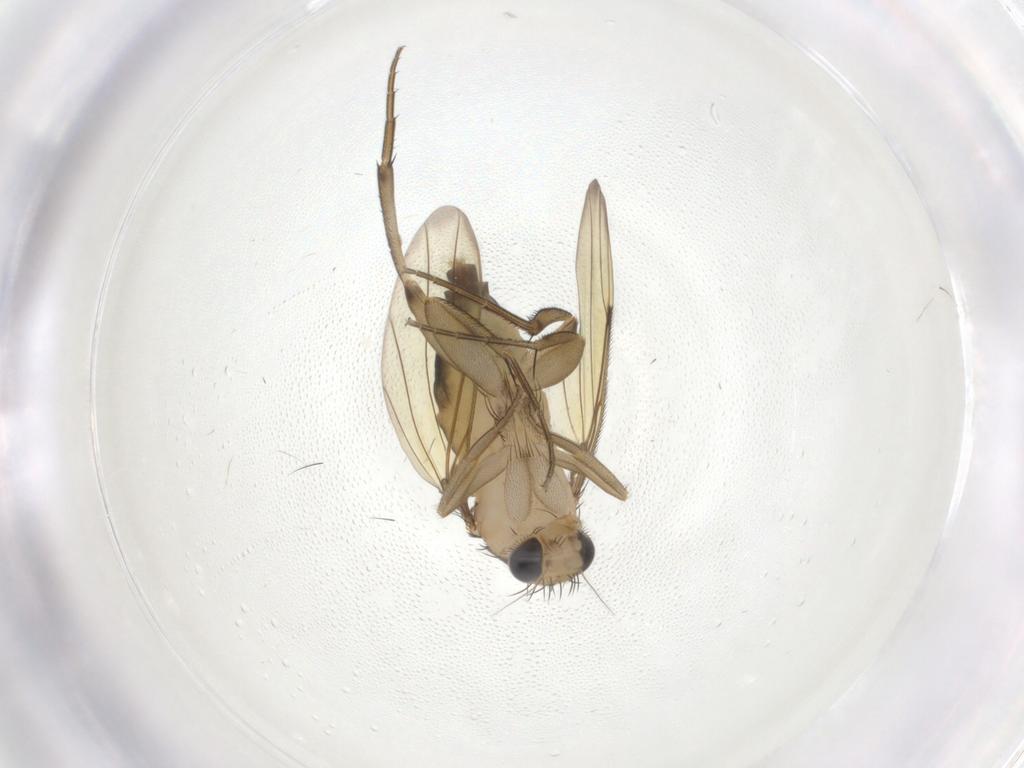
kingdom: Animalia
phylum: Arthropoda
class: Insecta
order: Diptera
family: Phoridae
